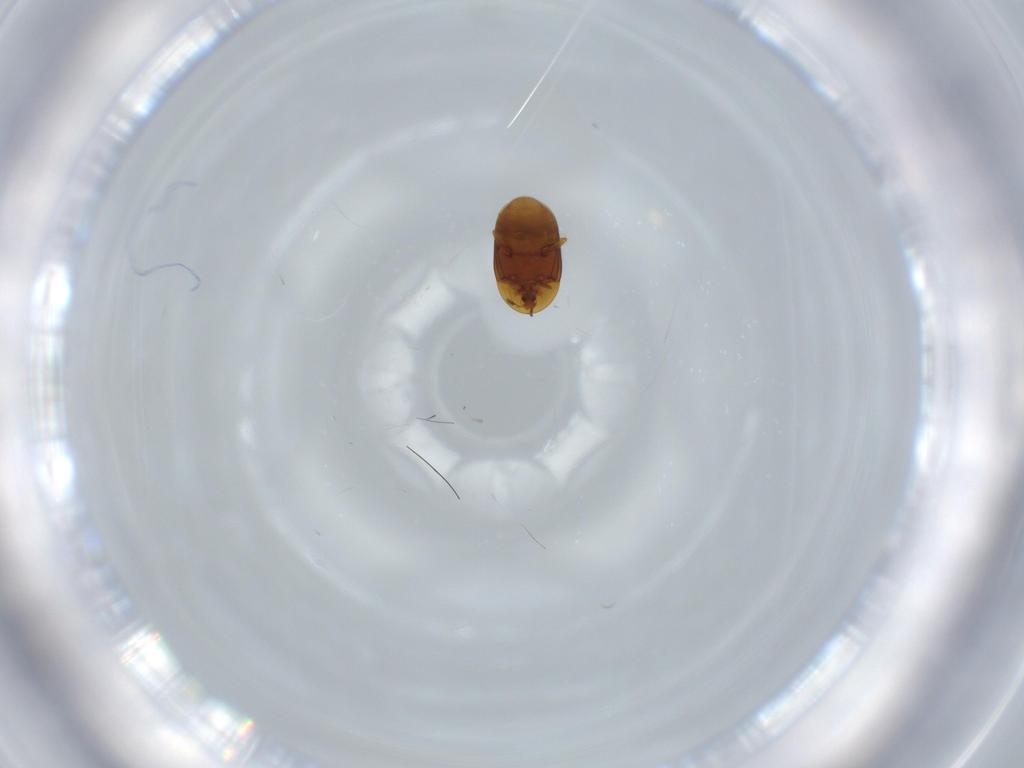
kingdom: Animalia
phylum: Arthropoda
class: Insecta
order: Coleoptera
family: Corylophidae
